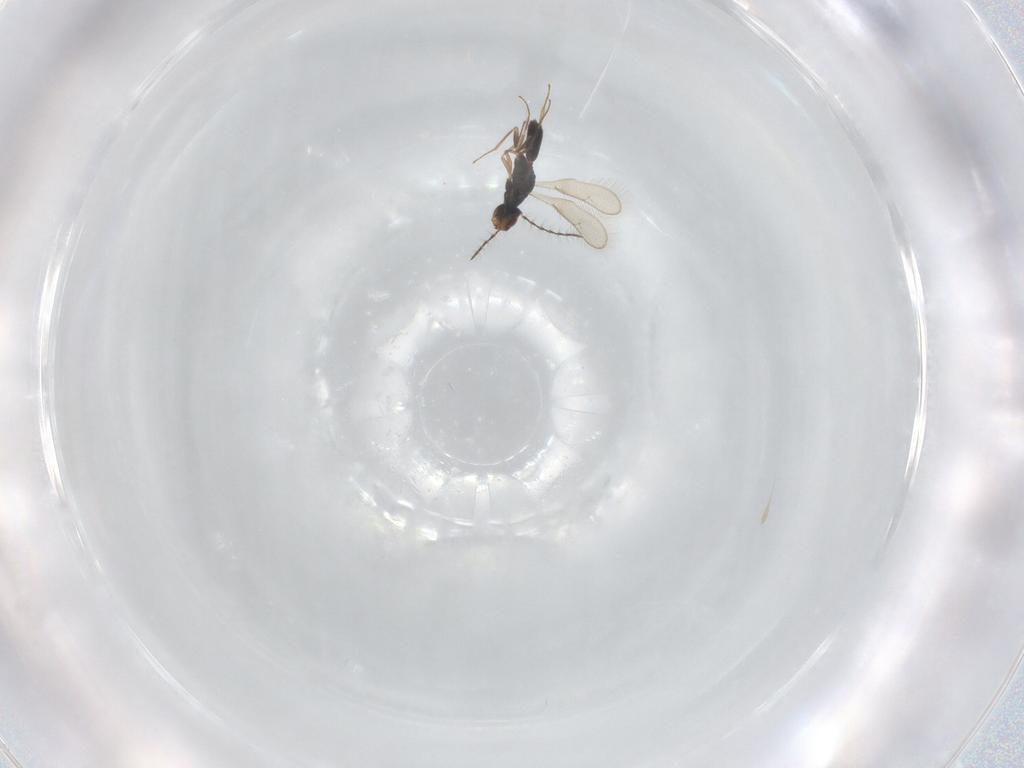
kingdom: Animalia
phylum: Arthropoda
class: Insecta
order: Hymenoptera
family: Pteromalidae
